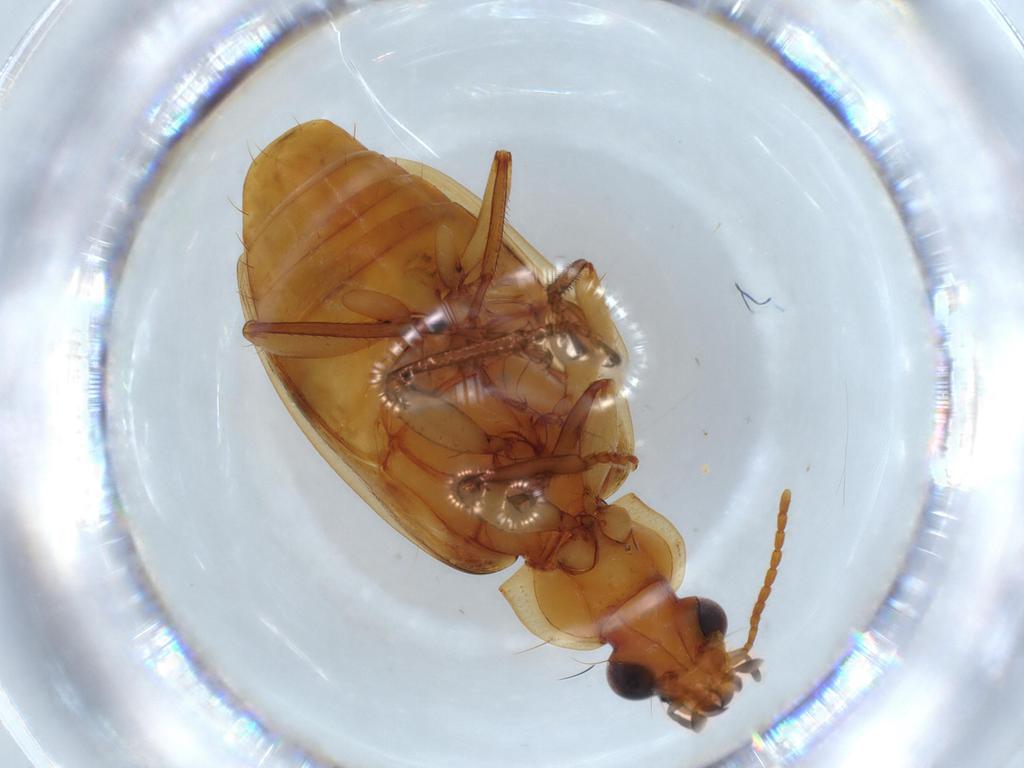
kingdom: Animalia
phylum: Arthropoda
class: Insecta
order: Coleoptera
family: Carabidae
